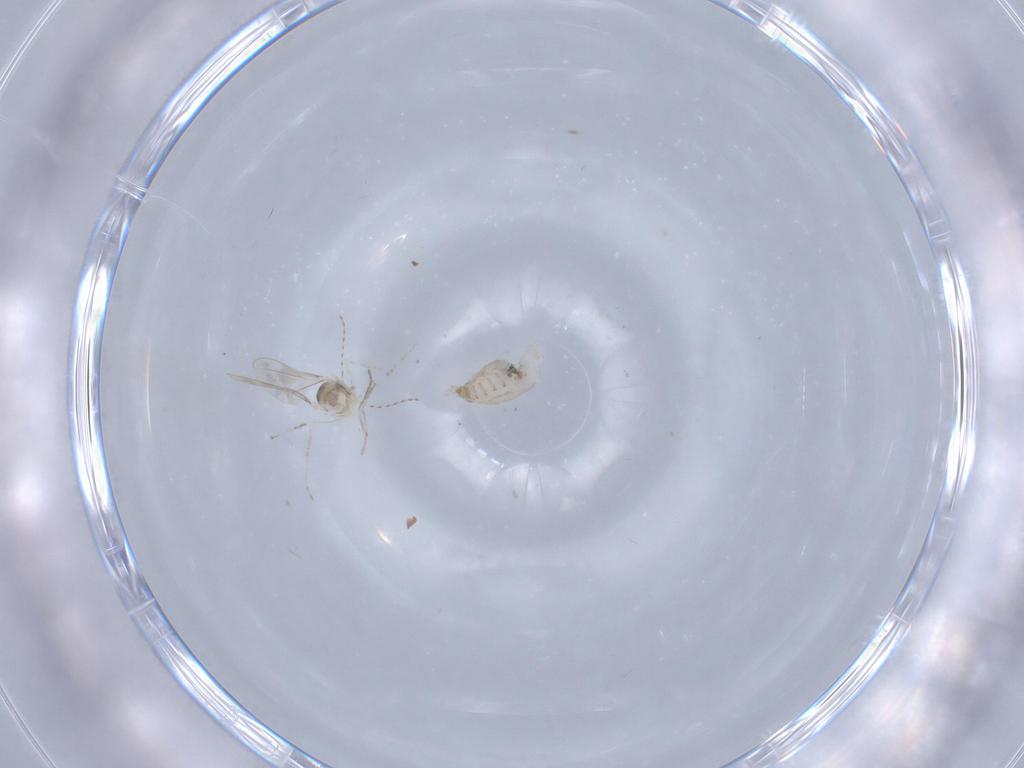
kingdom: Animalia
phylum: Arthropoda
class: Insecta
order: Diptera
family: Cecidomyiidae
